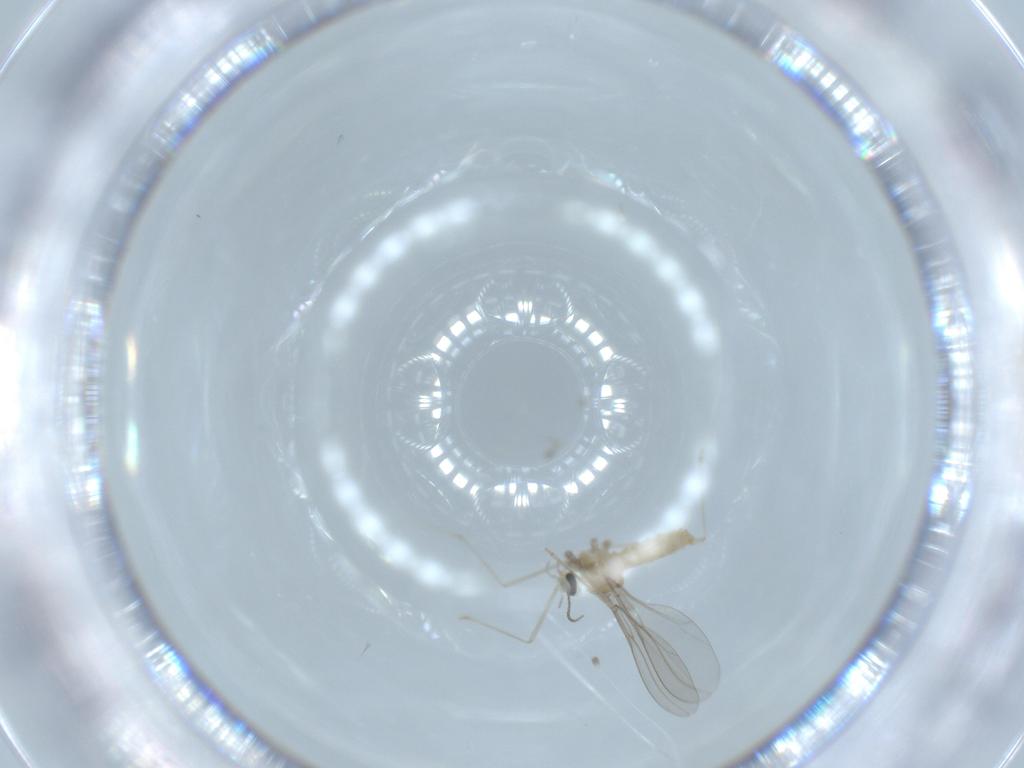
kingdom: Animalia
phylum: Arthropoda
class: Insecta
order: Diptera
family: Cecidomyiidae
